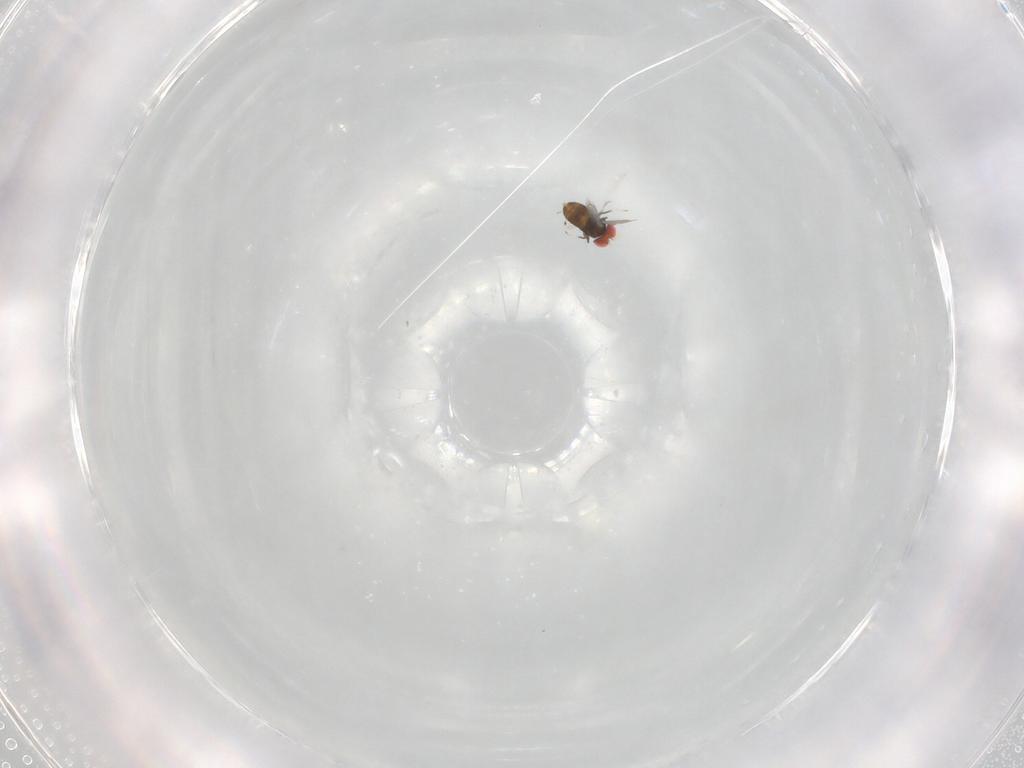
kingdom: Animalia
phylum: Arthropoda
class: Insecta
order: Hymenoptera
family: Trichogrammatidae
